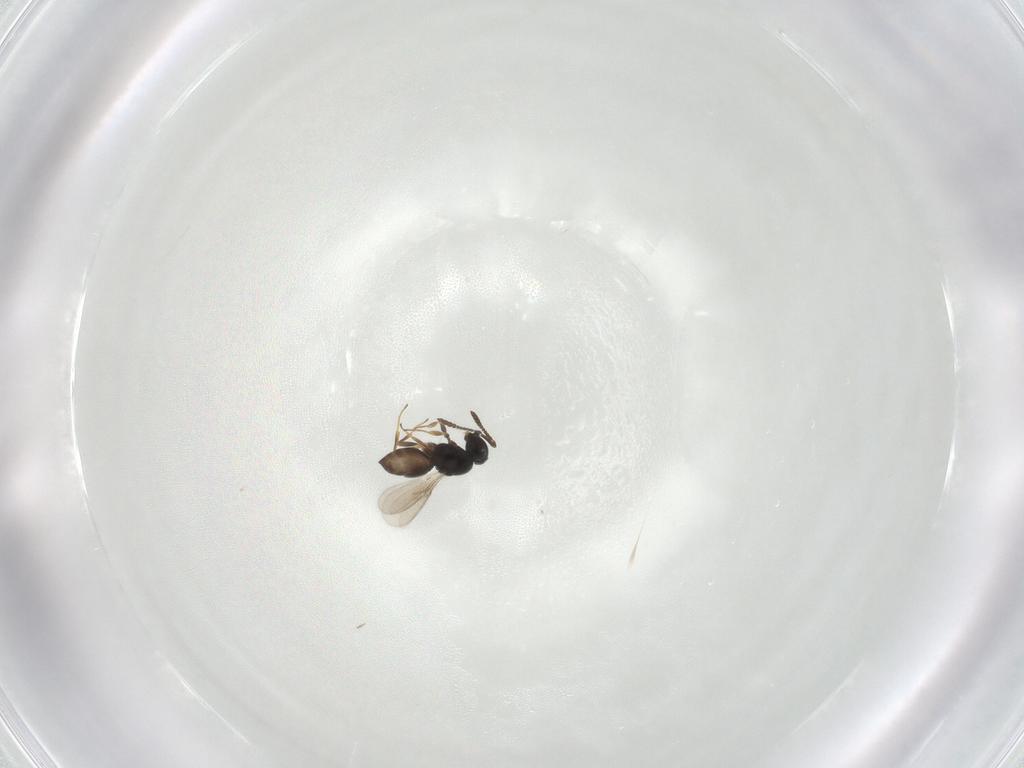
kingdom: Animalia
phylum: Arthropoda
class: Insecta
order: Hymenoptera
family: Scelionidae
